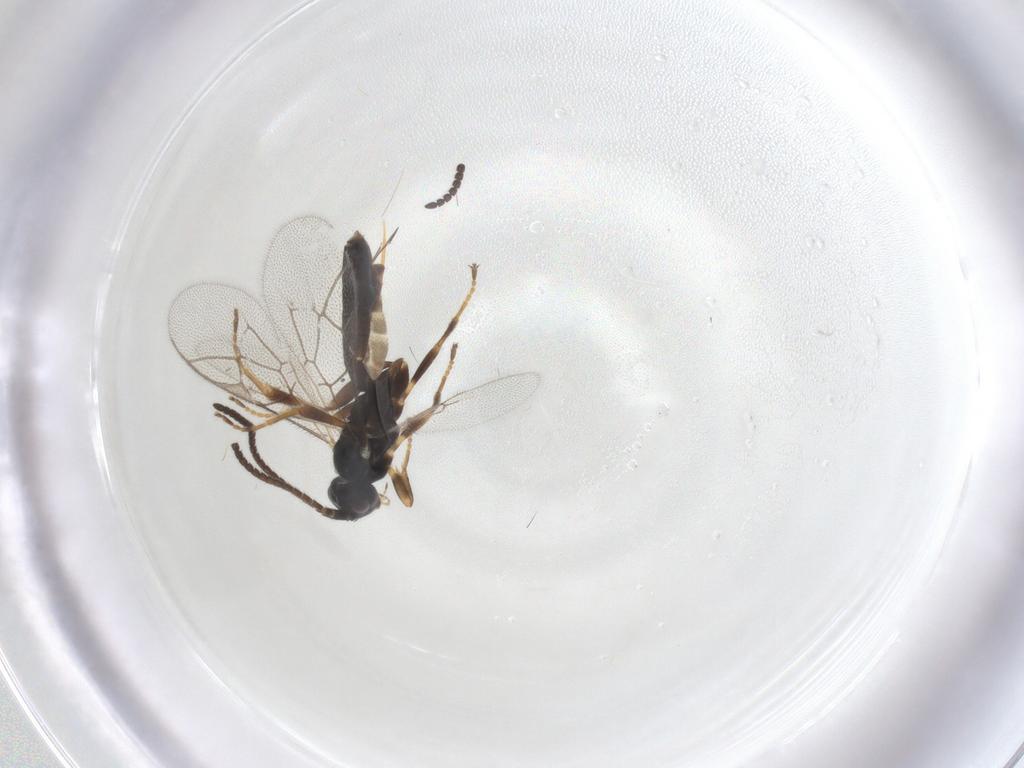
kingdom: Animalia
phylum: Arthropoda
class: Insecta
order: Hymenoptera
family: Ichneumonidae
